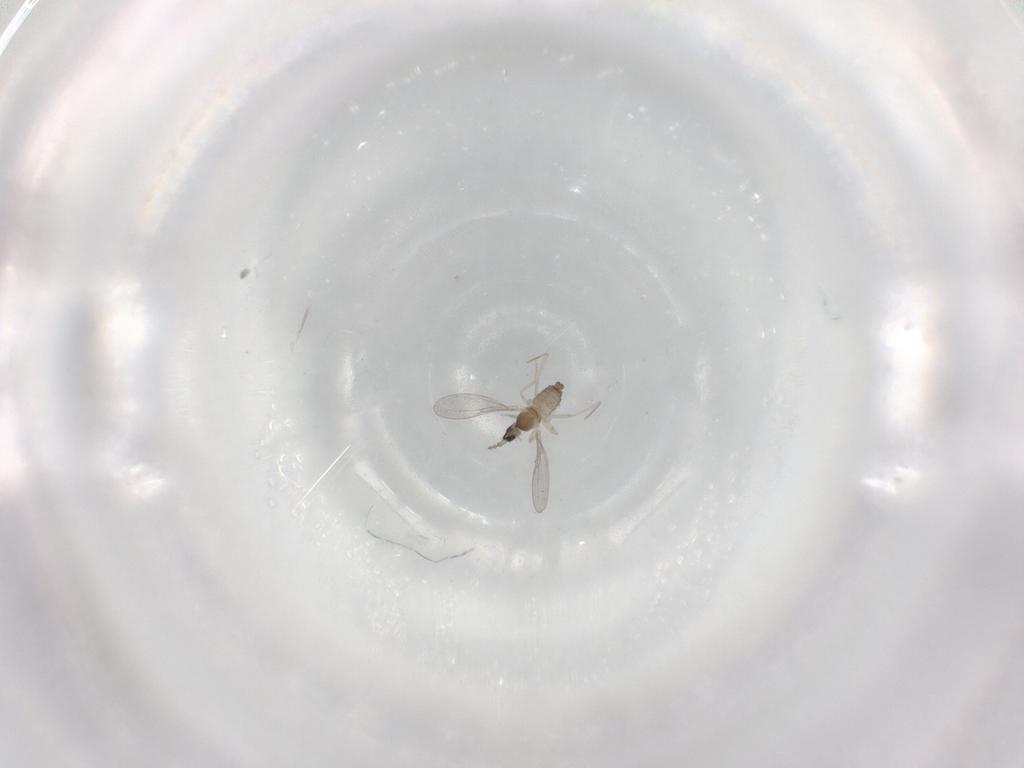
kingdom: Animalia
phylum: Arthropoda
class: Insecta
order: Diptera
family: Cecidomyiidae
